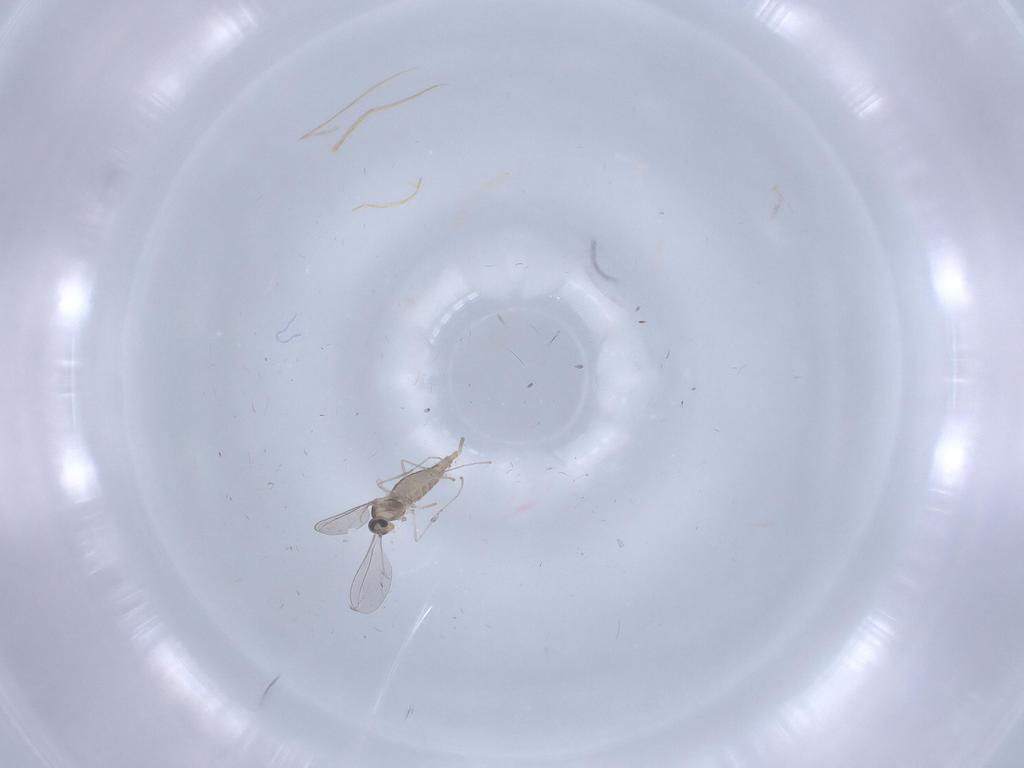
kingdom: Animalia
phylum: Arthropoda
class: Insecta
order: Diptera
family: Cecidomyiidae
